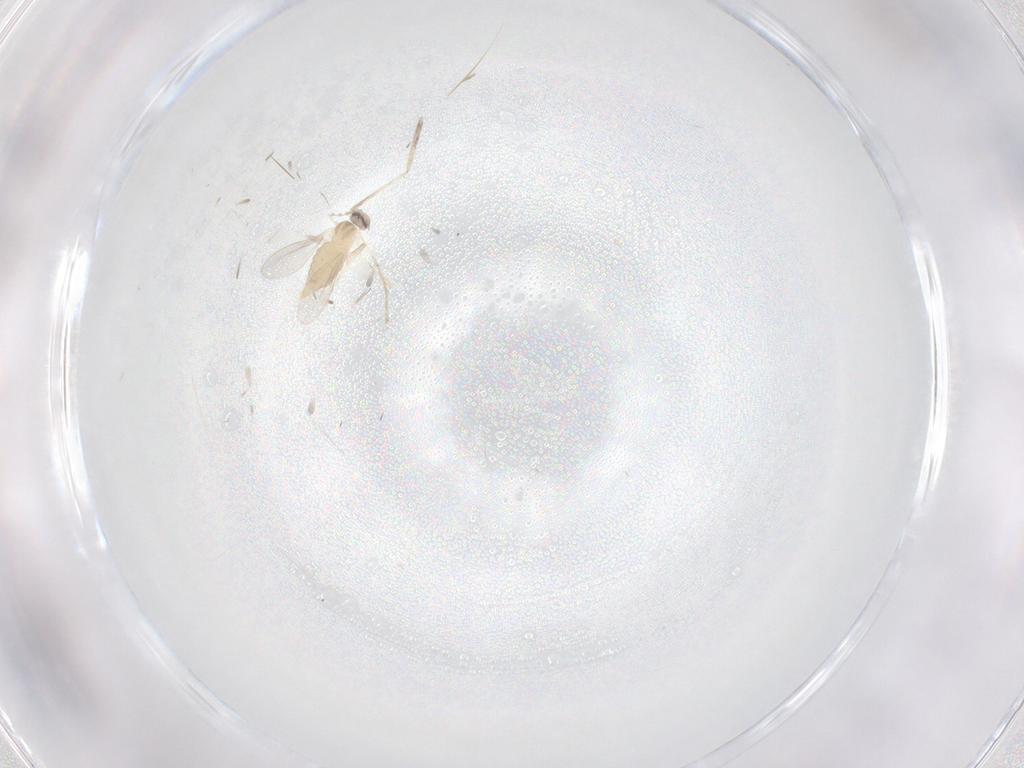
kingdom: Animalia
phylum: Arthropoda
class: Insecta
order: Diptera
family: Cecidomyiidae
